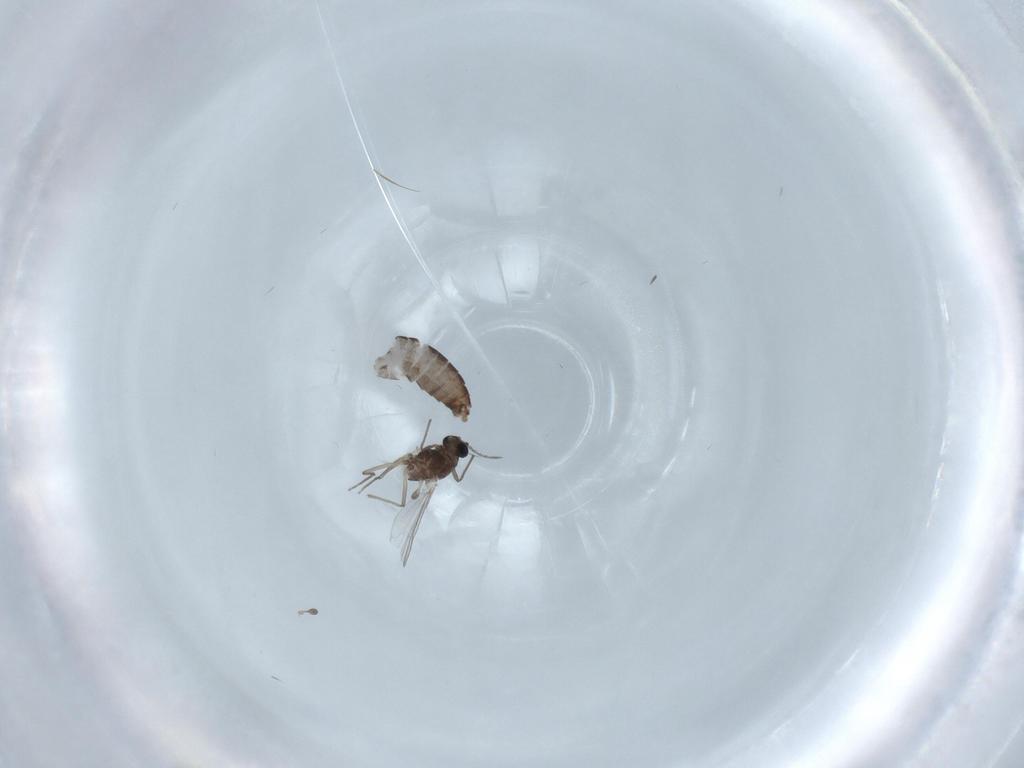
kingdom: Animalia
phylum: Arthropoda
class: Insecta
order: Diptera
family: Chironomidae
